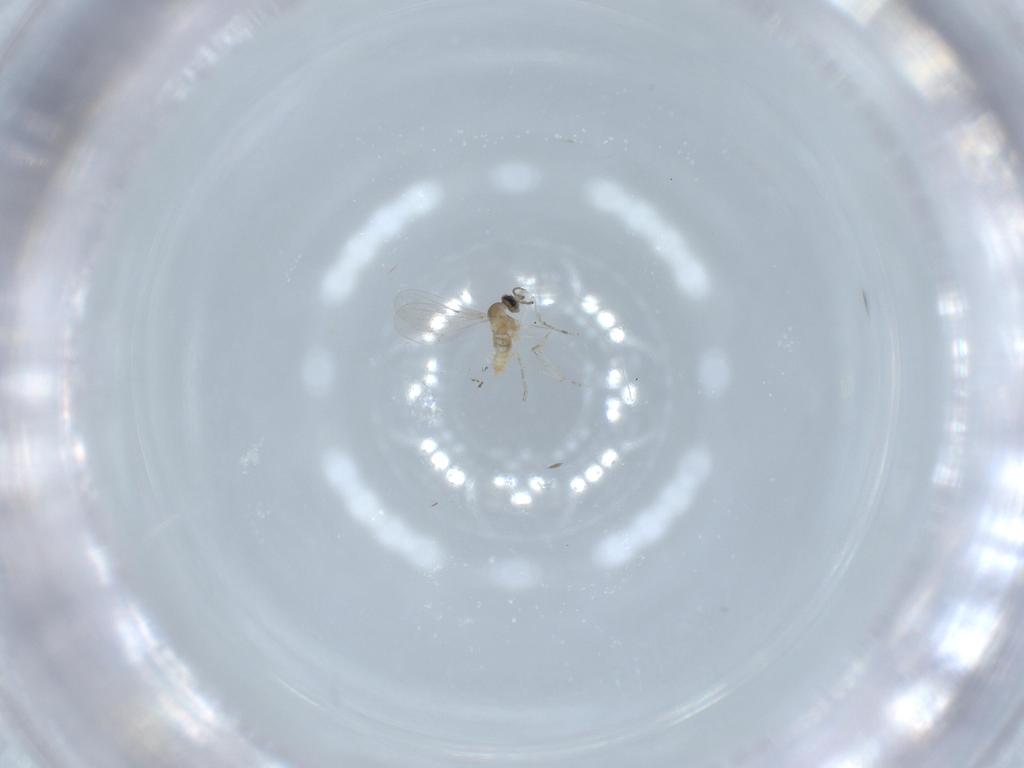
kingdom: Animalia
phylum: Arthropoda
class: Insecta
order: Diptera
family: Cecidomyiidae
